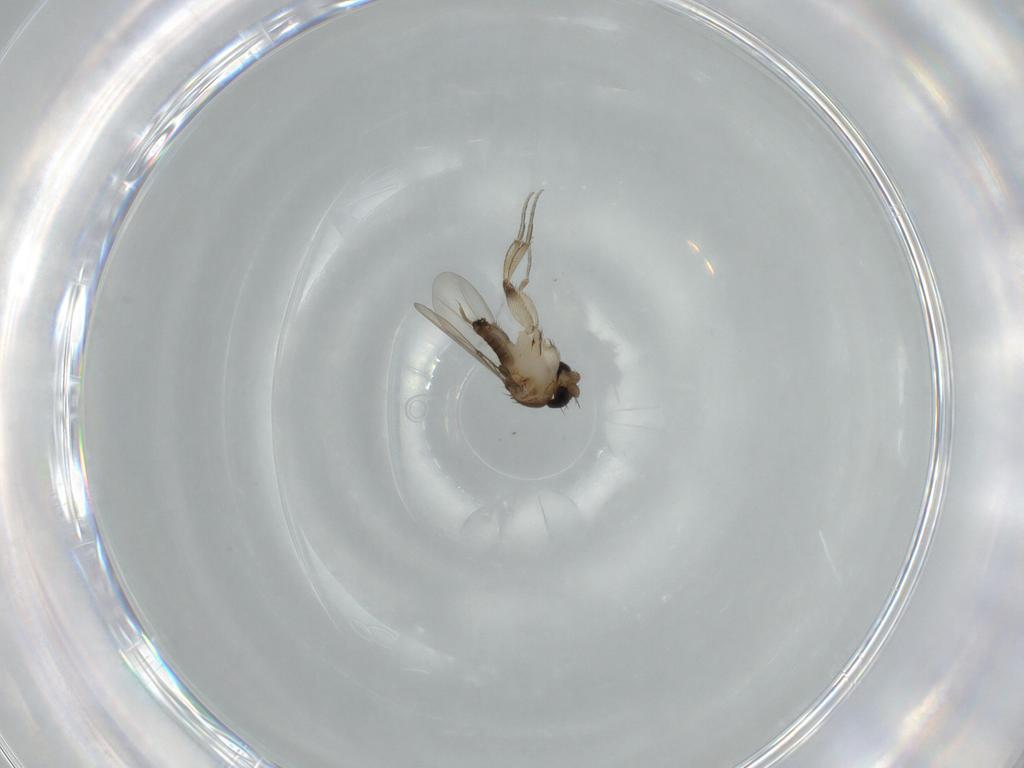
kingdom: Animalia
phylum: Arthropoda
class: Insecta
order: Diptera
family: Phoridae
